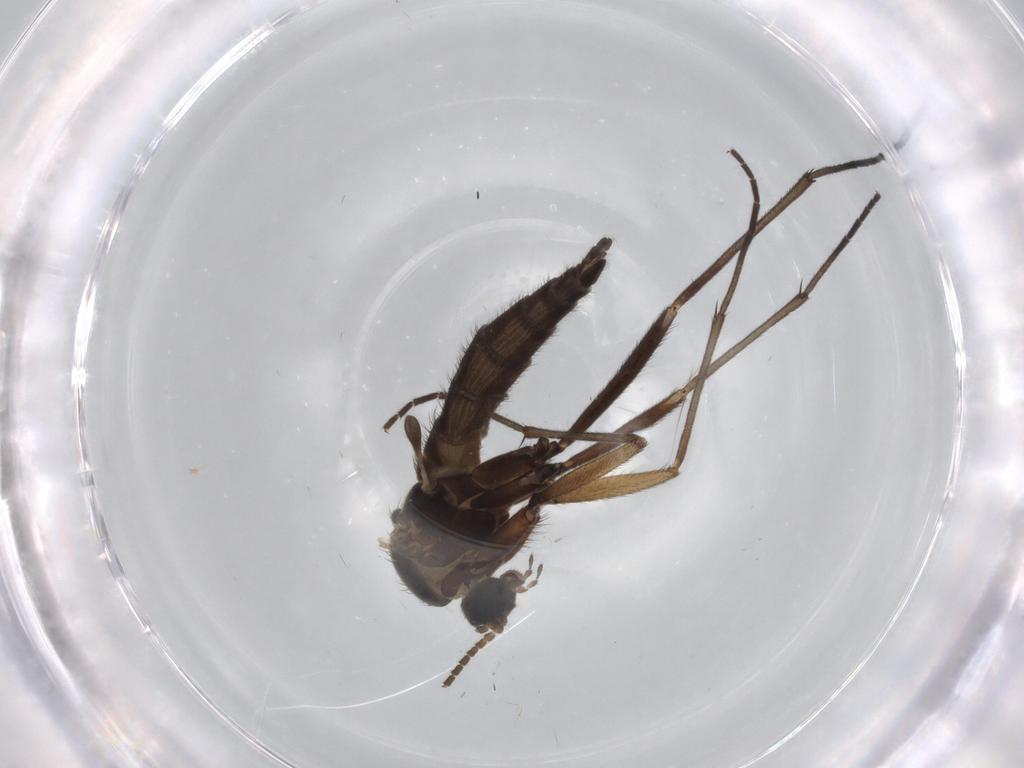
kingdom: Animalia
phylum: Arthropoda
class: Insecta
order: Diptera
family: Sciaridae
